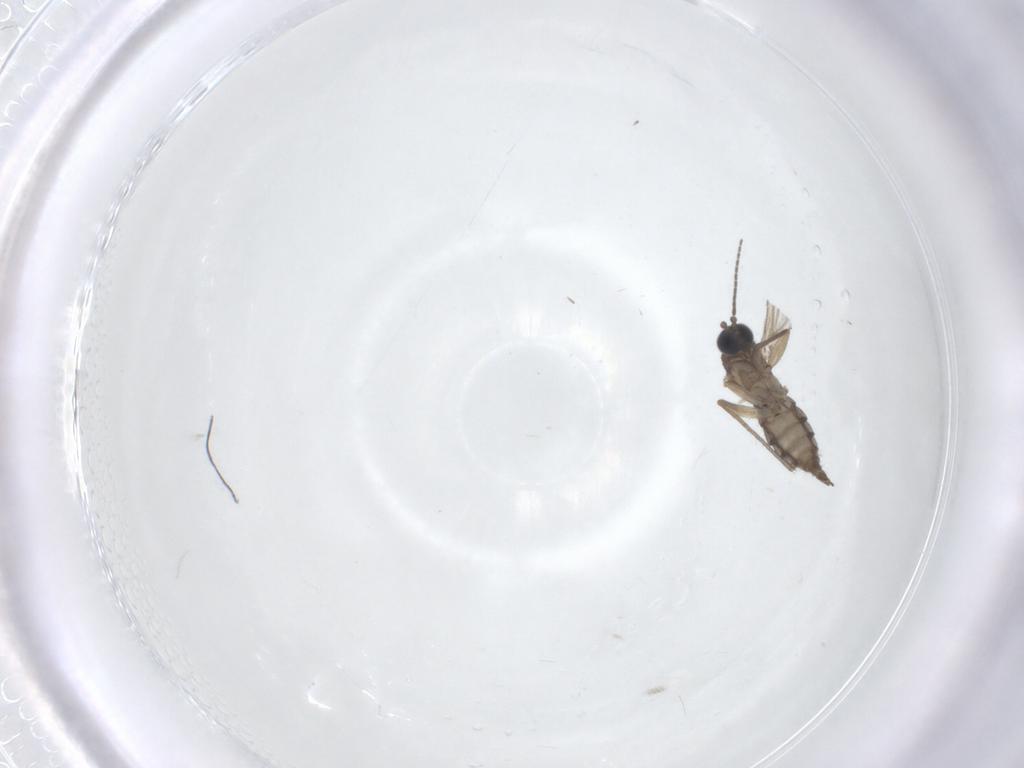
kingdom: Animalia
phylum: Arthropoda
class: Insecta
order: Diptera
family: Sciaridae
